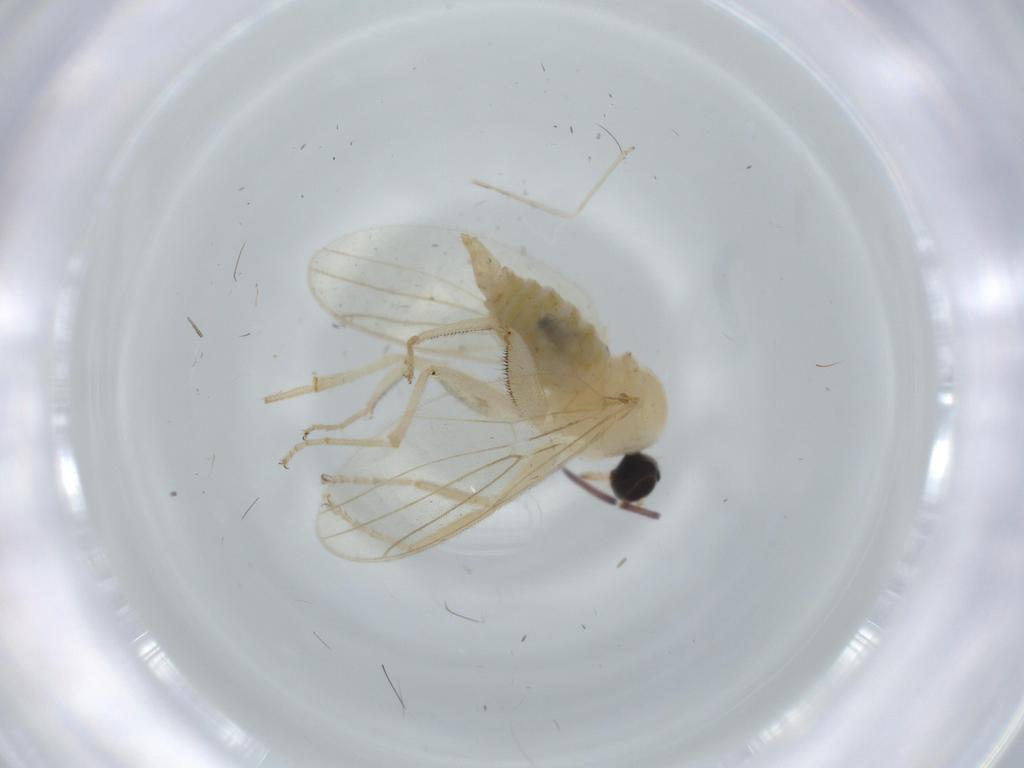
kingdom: Animalia
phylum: Arthropoda
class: Insecta
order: Diptera
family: Hybotidae
